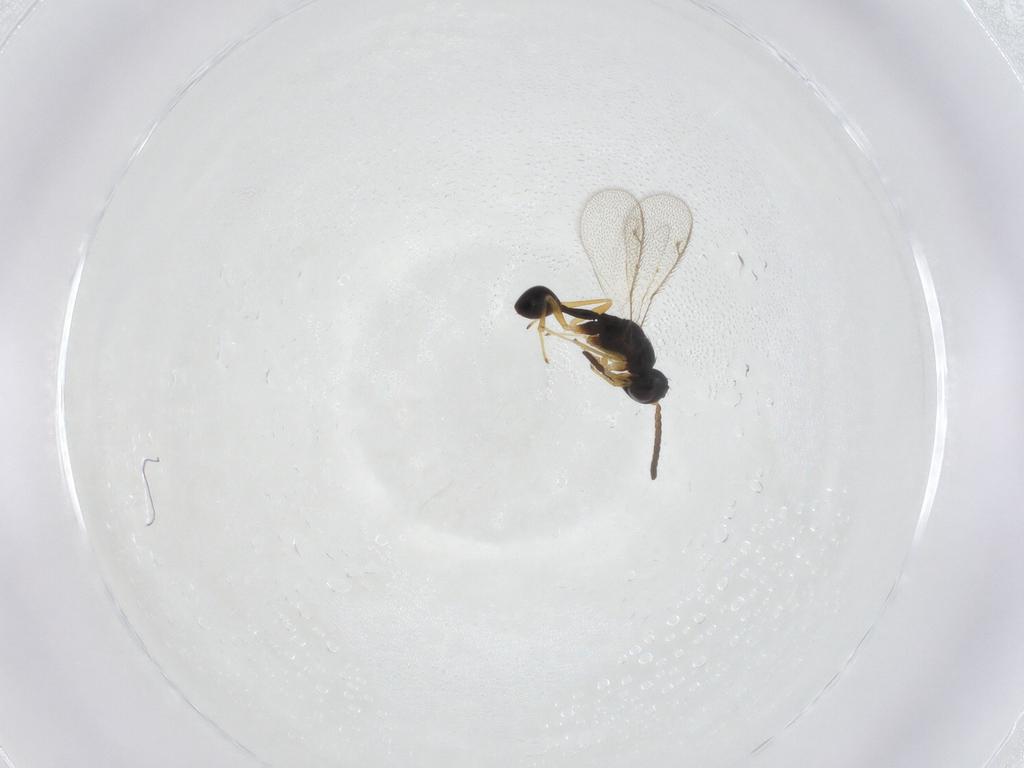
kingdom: Animalia
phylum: Arthropoda
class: Insecta
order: Hymenoptera
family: Diparidae
